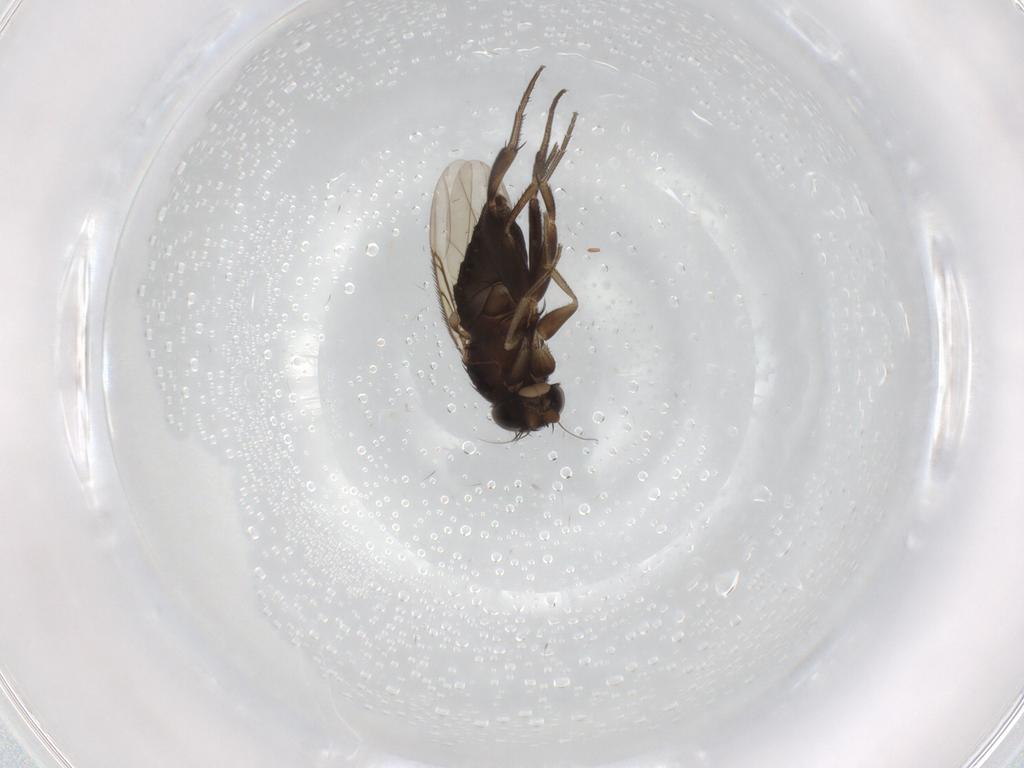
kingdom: Animalia
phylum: Arthropoda
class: Insecta
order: Diptera
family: Phoridae
